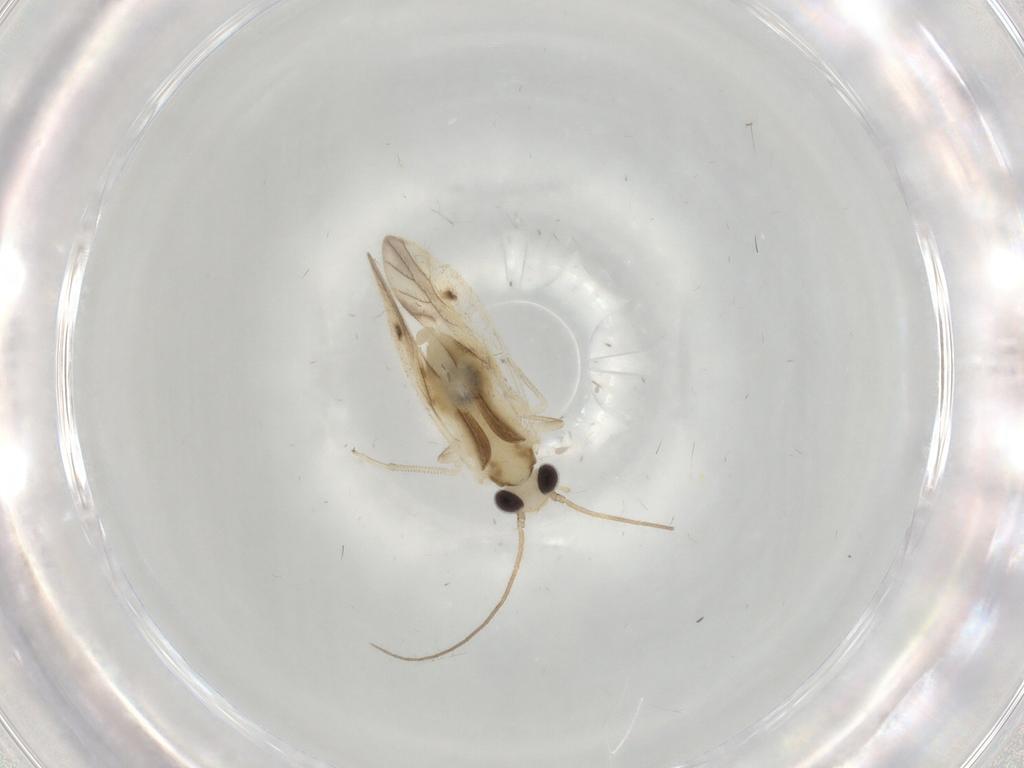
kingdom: Animalia
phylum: Arthropoda
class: Insecta
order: Psocodea
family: Caeciliusidae
